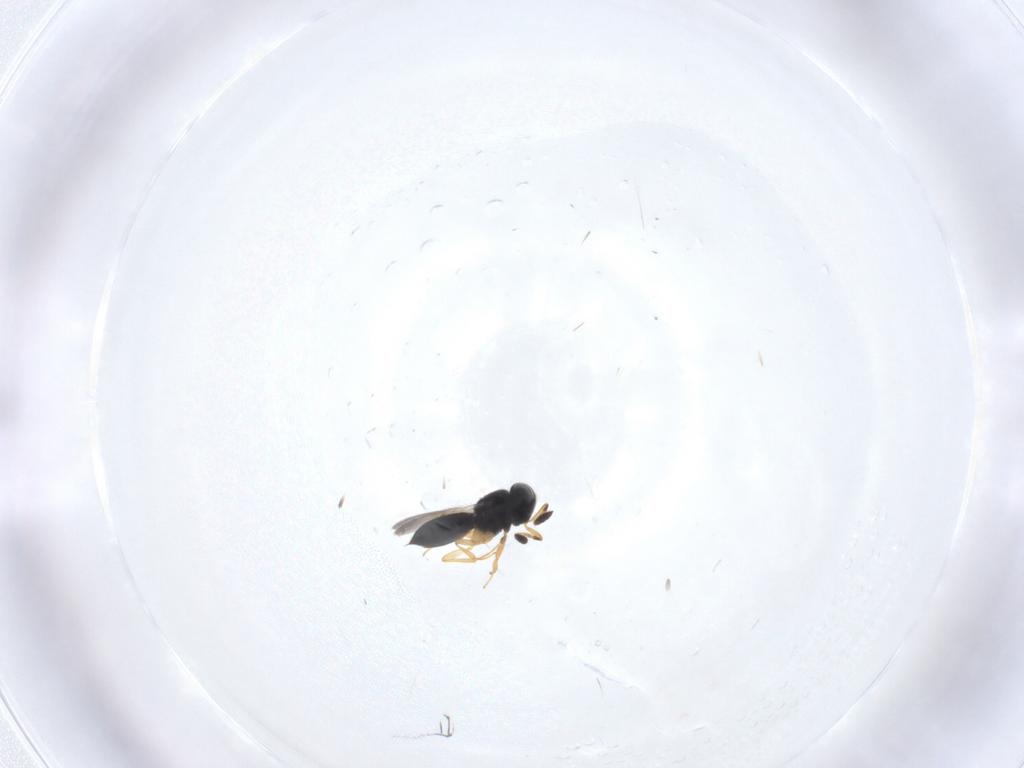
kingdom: Animalia
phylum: Arthropoda
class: Insecta
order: Hymenoptera
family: Scelionidae
